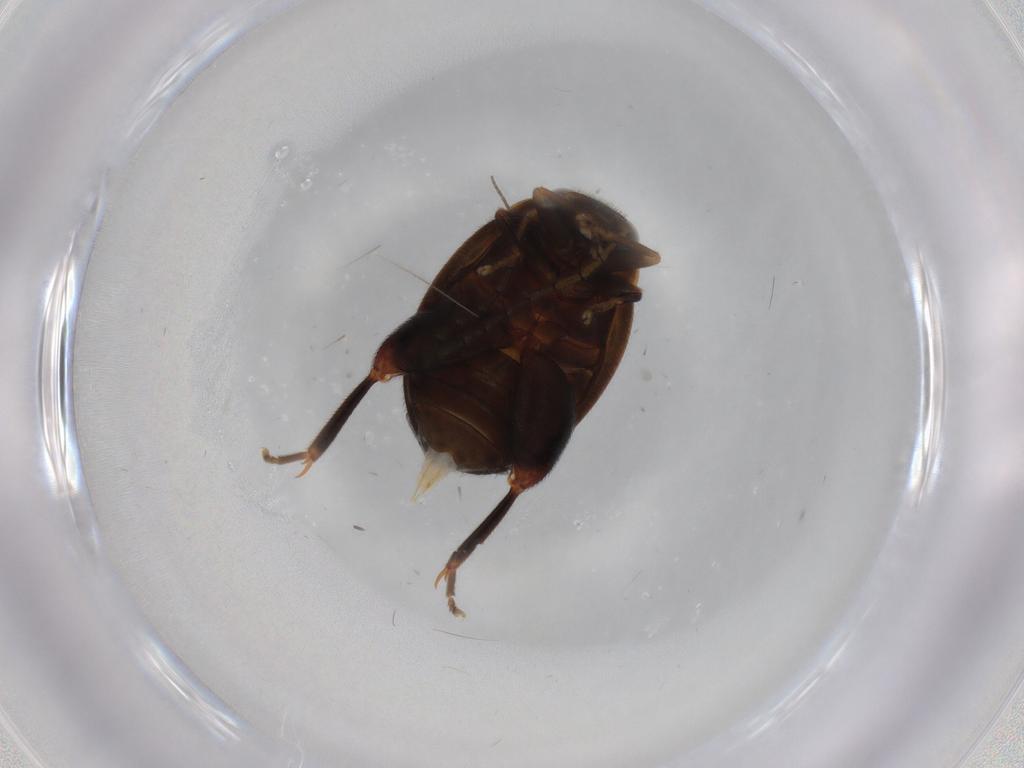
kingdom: Animalia
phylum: Arthropoda
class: Insecta
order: Coleoptera
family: Scirtidae
